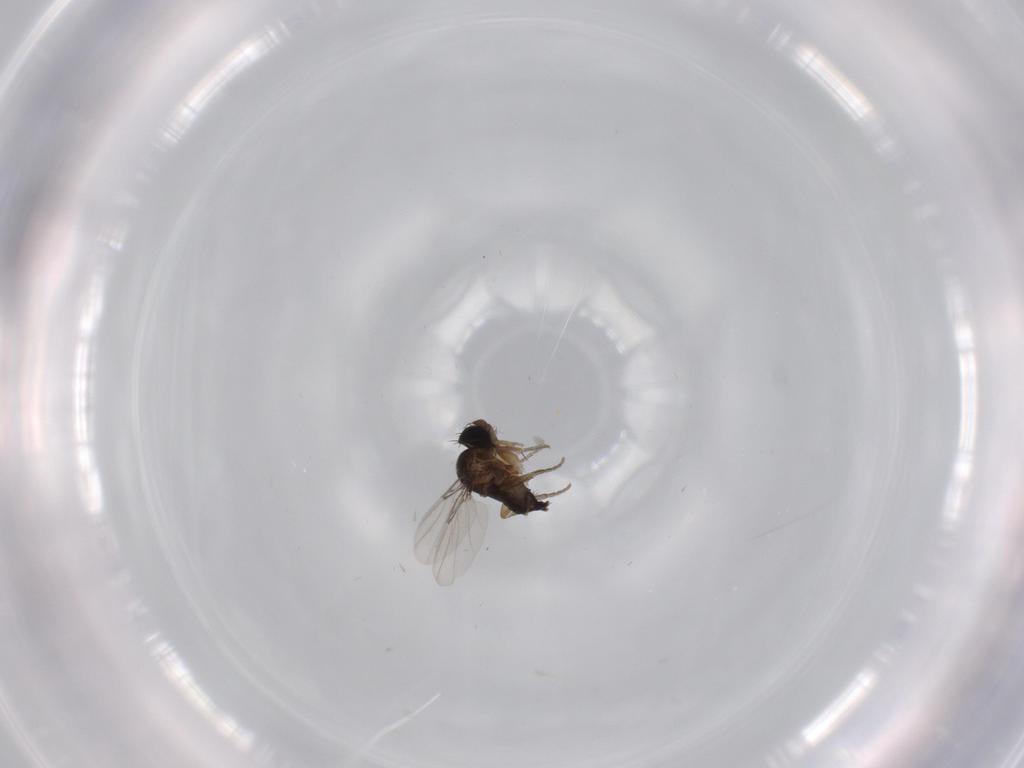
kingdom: Animalia
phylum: Arthropoda
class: Insecta
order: Diptera
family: Phoridae
